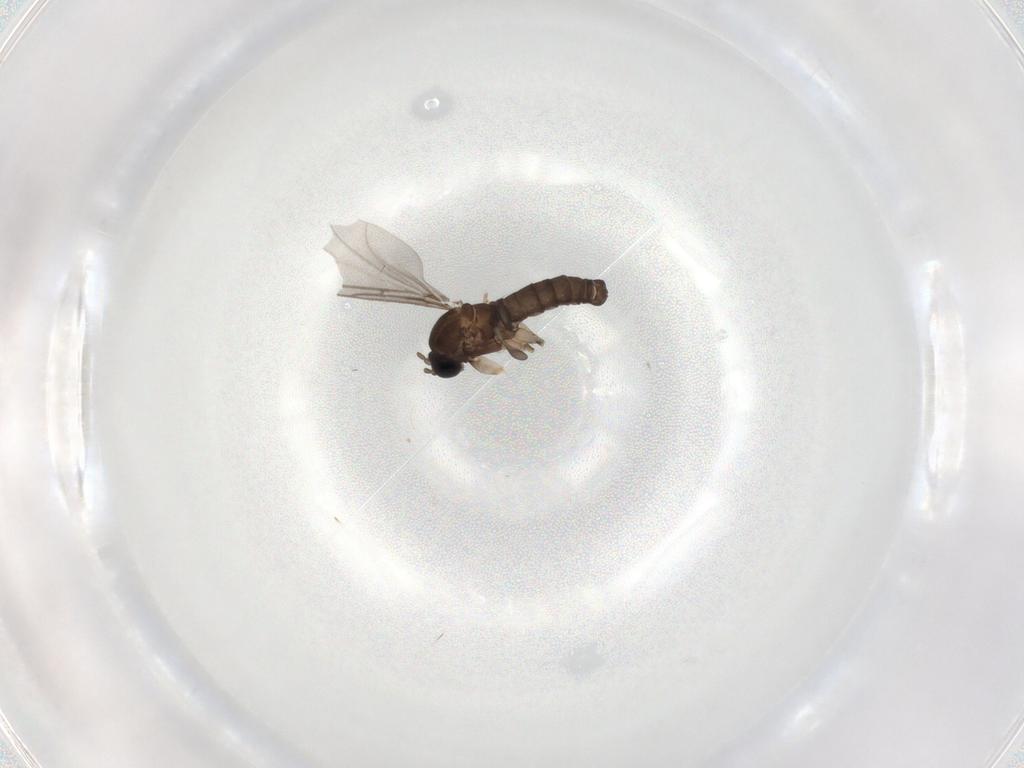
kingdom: Animalia
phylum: Arthropoda
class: Insecta
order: Diptera
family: Sciaridae
